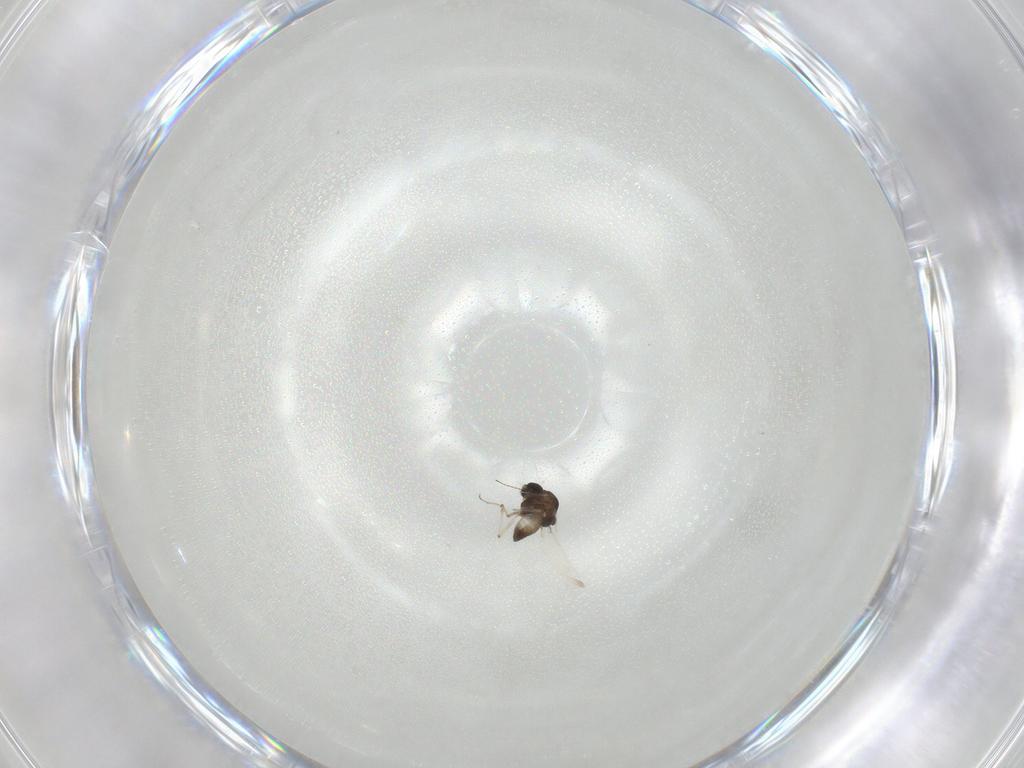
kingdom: Animalia
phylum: Arthropoda
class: Insecta
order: Diptera
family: Chironomidae
